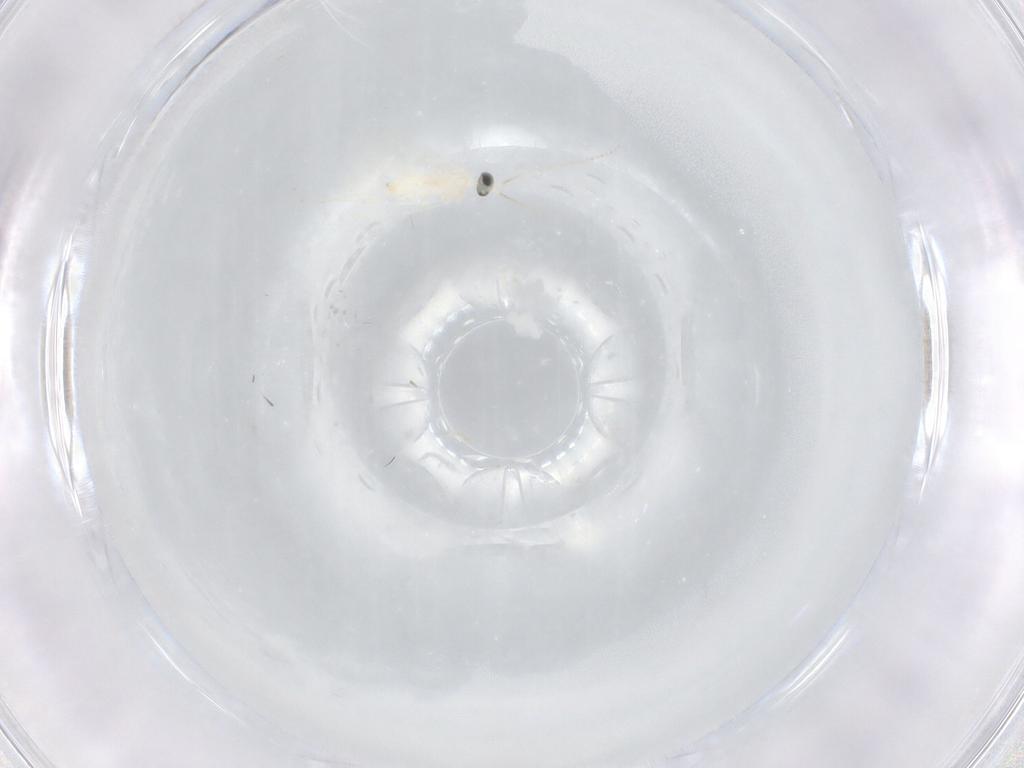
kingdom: Animalia
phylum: Arthropoda
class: Insecta
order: Diptera
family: Cecidomyiidae
